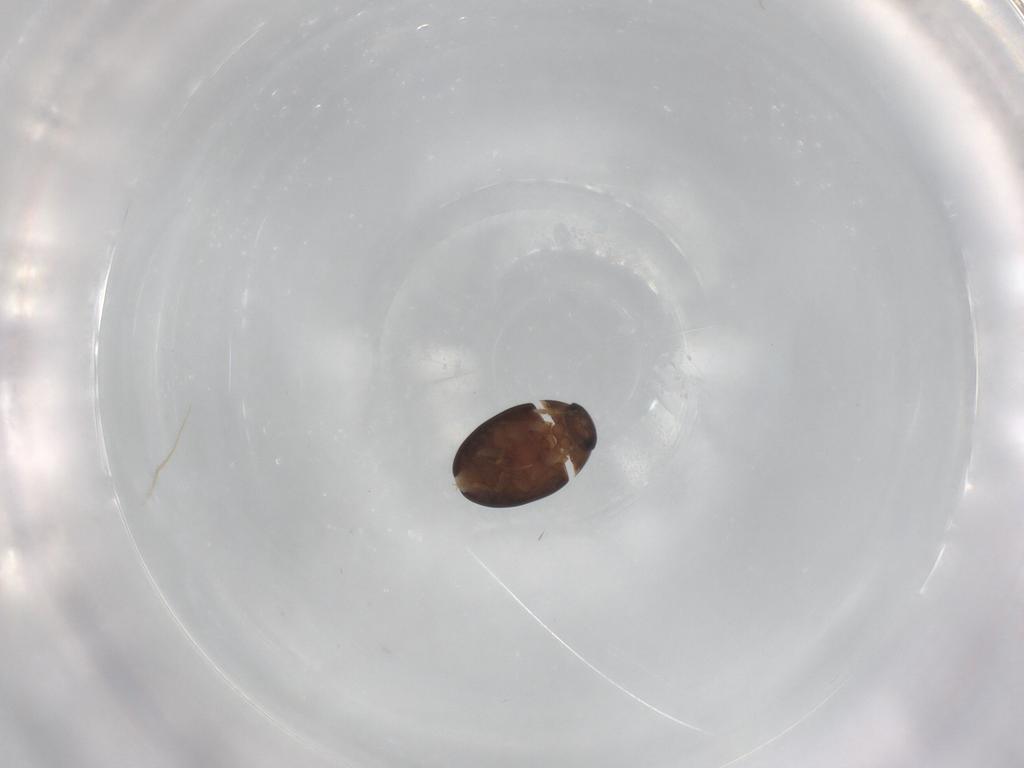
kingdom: Animalia
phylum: Arthropoda
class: Insecta
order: Coleoptera
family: Phalacridae
